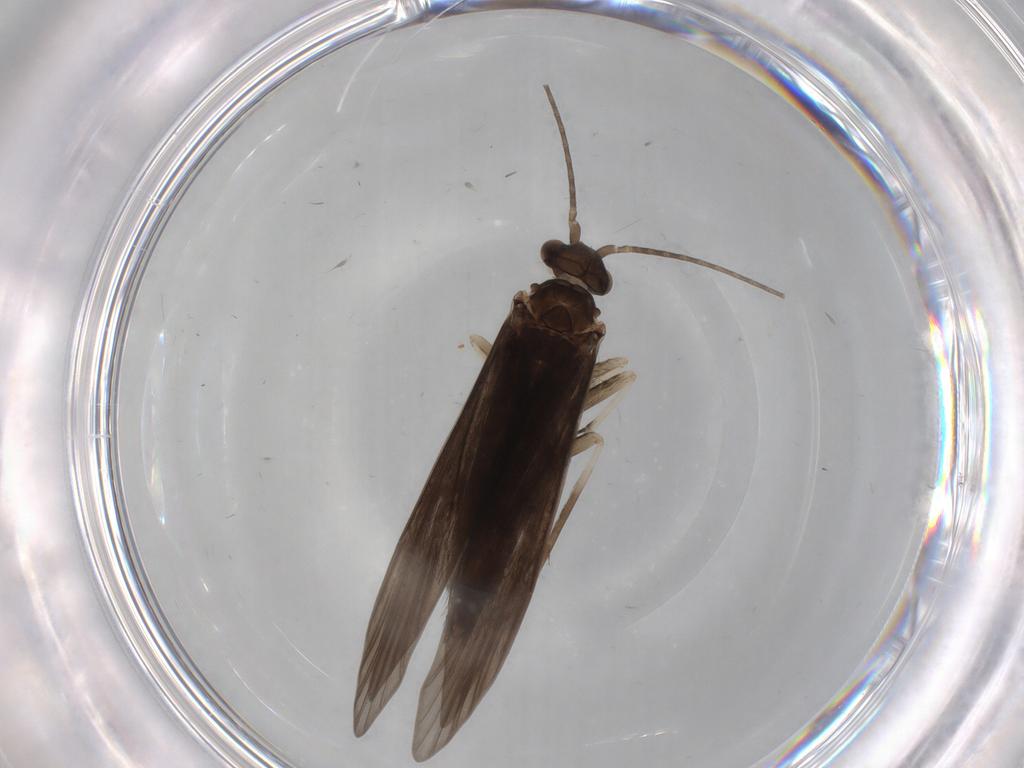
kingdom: Animalia
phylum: Arthropoda
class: Insecta
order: Trichoptera
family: Xiphocentronidae
